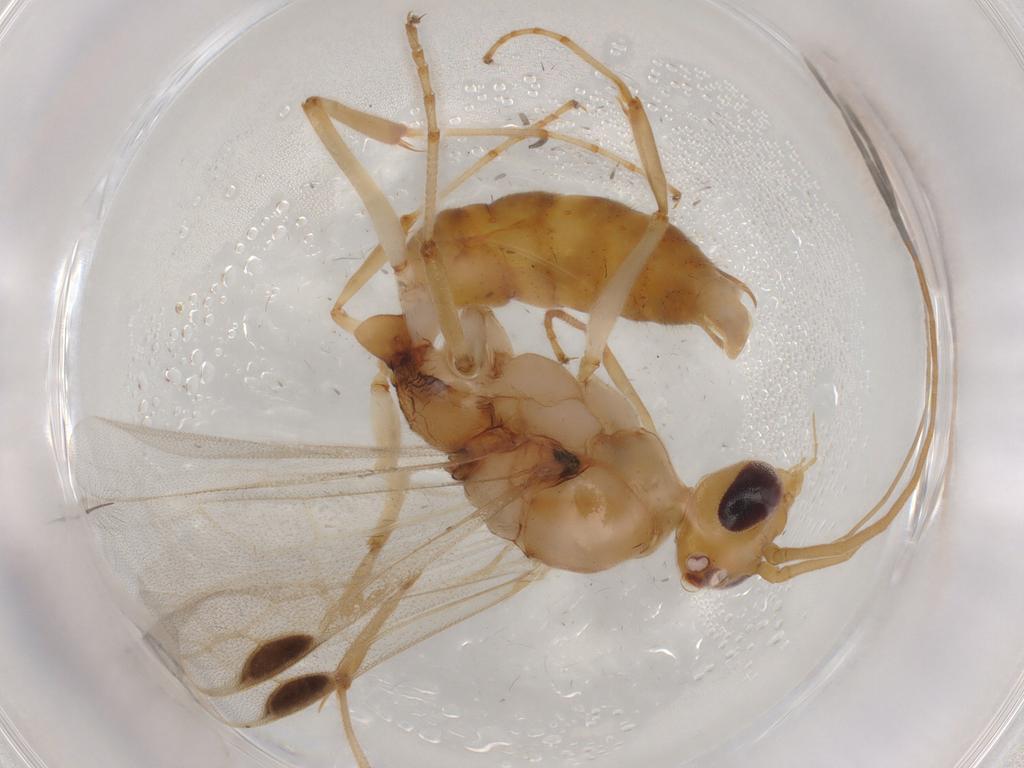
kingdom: Animalia
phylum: Arthropoda
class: Insecta
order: Hymenoptera
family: Formicidae
